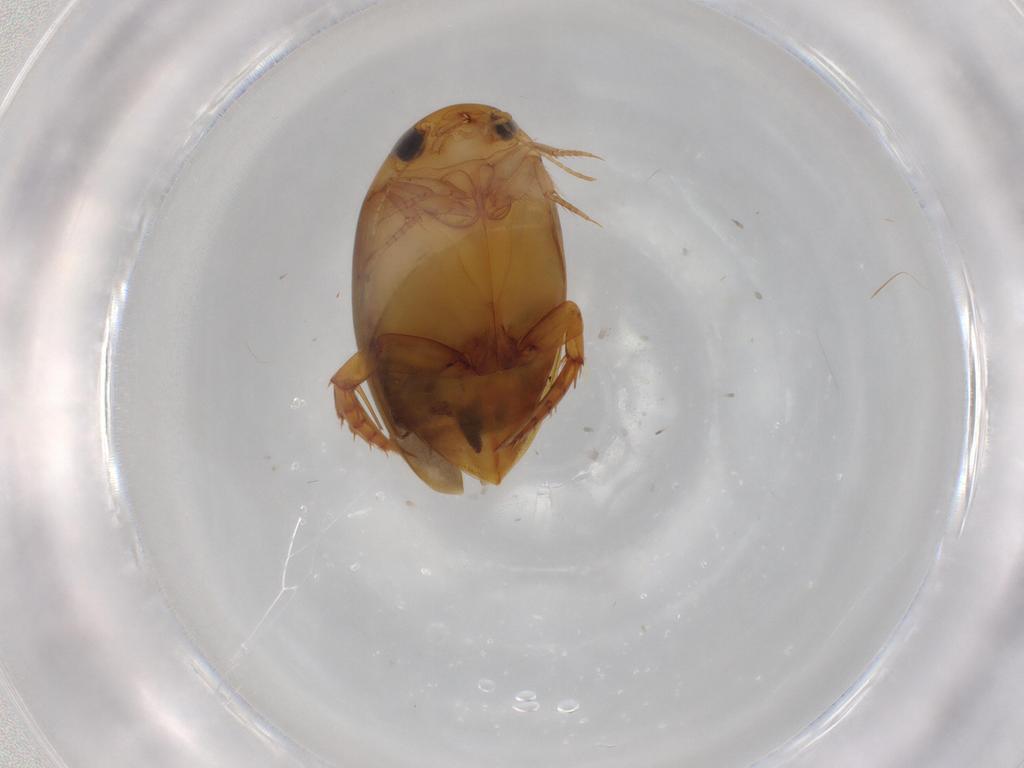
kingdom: Animalia
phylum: Arthropoda
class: Insecta
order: Coleoptera
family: Dytiscidae
